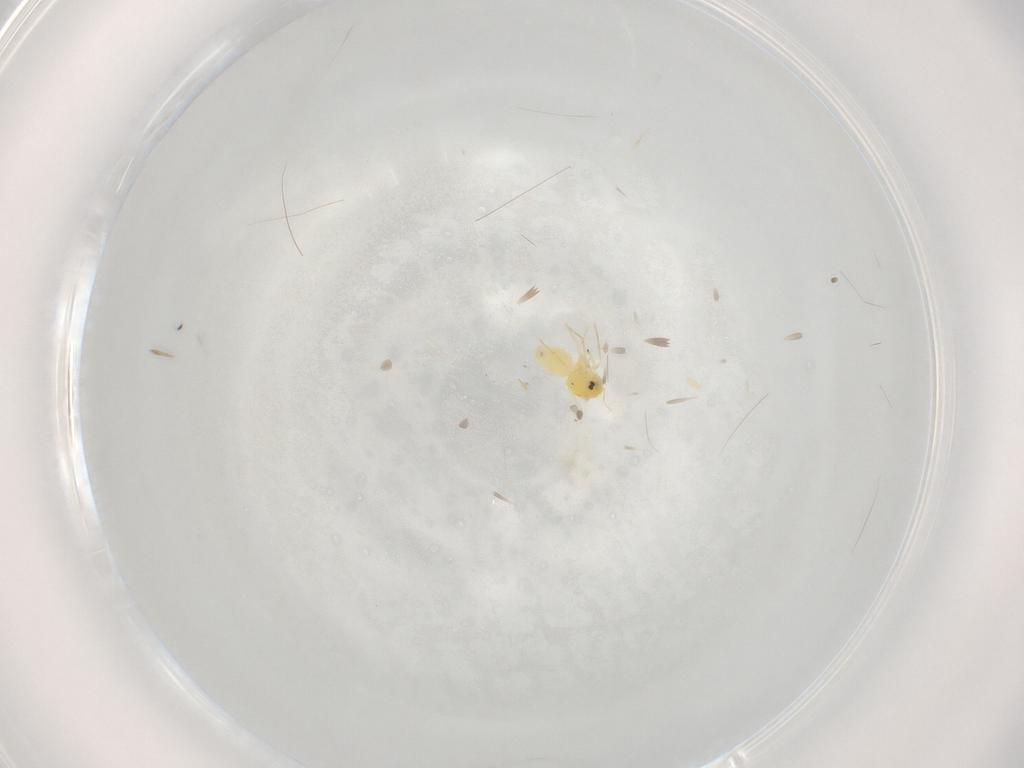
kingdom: Animalia
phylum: Arthropoda
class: Insecta
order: Hemiptera
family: Aleyrodidae
